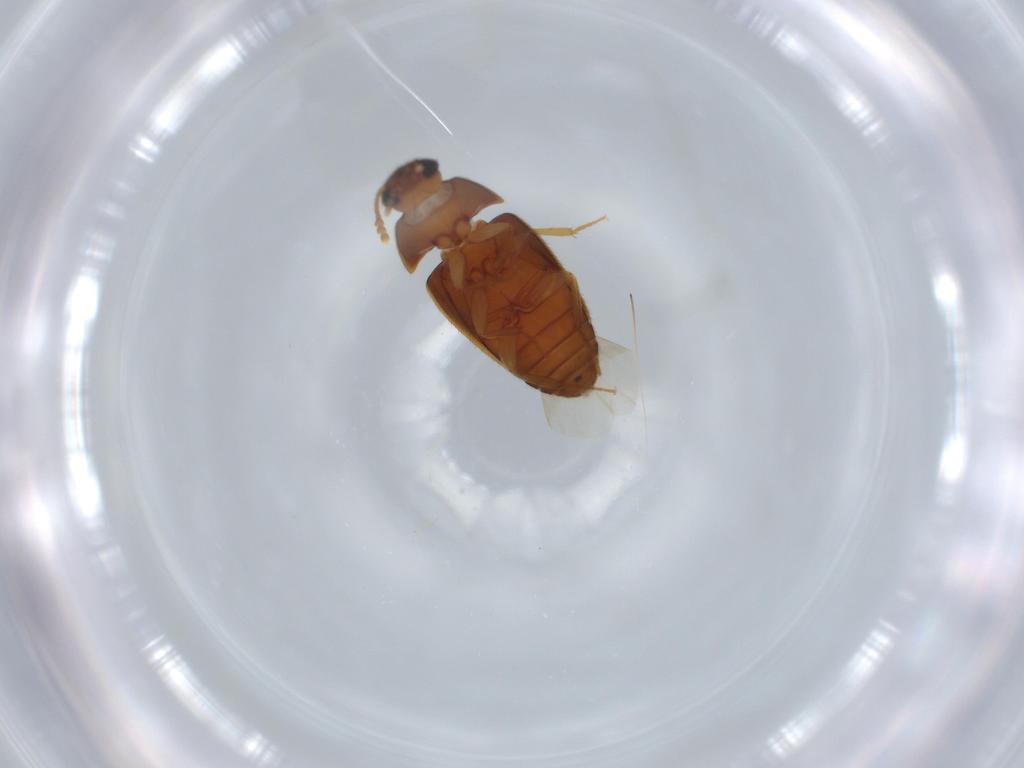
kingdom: Animalia
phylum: Arthropoda
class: Insecta
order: Coleoptera
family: Mycetophagidae
